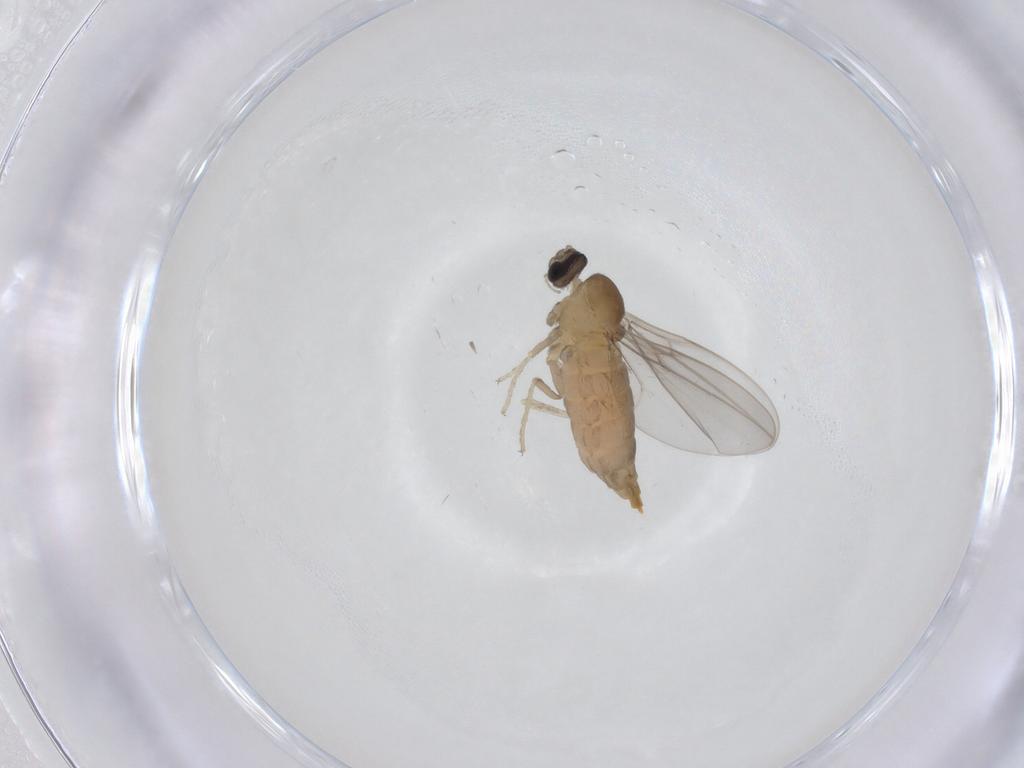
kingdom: Animalia
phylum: Arthropoda
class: Insecta
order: Diptera
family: Cecidomyiidae
